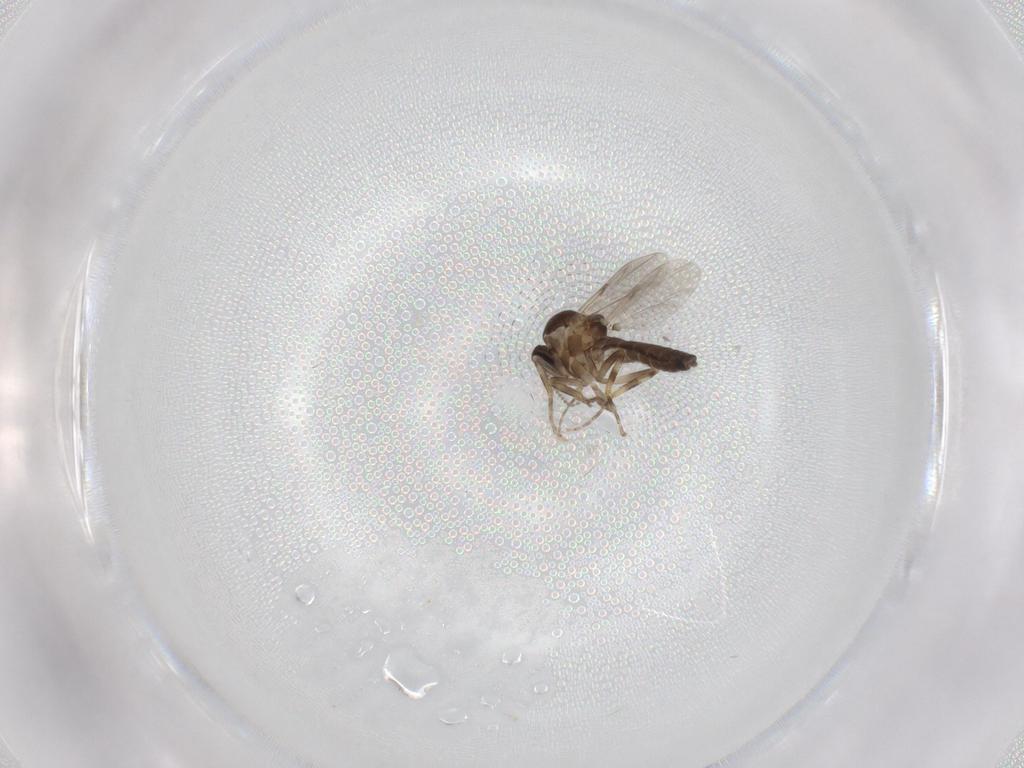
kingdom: Animalia
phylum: Arthropoda
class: Insecta
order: Diptera
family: Ceratopogonidae
